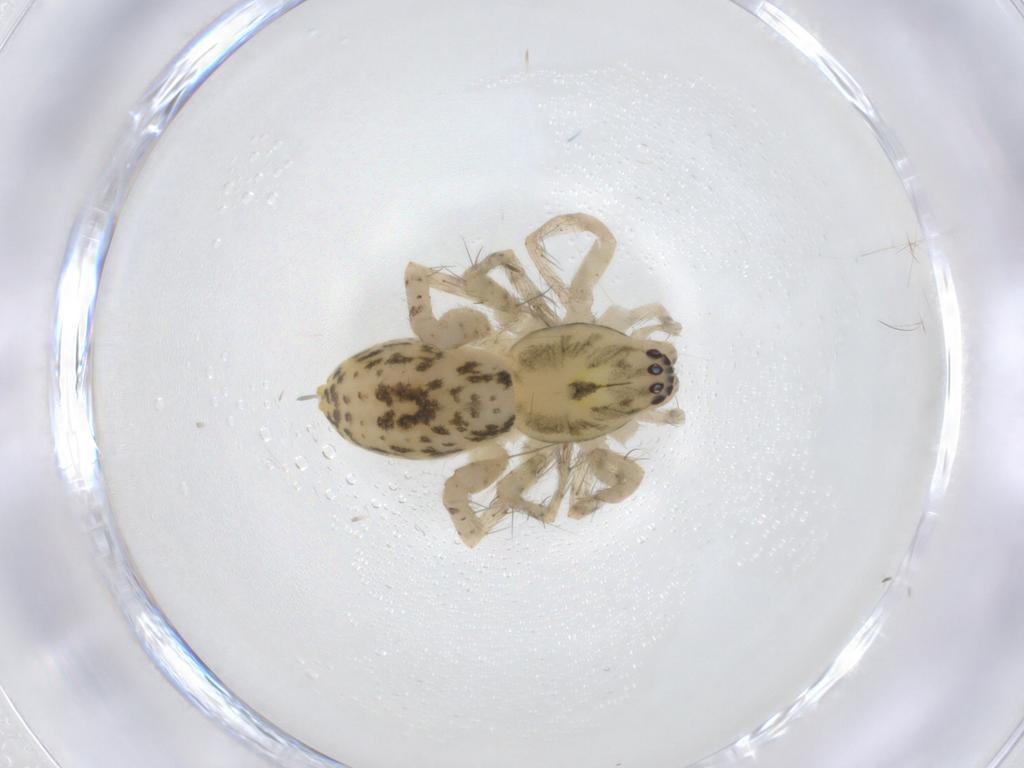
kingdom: Animalia
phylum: Arthropoda
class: Arachnida
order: Araneae
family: Anyphaenidae
